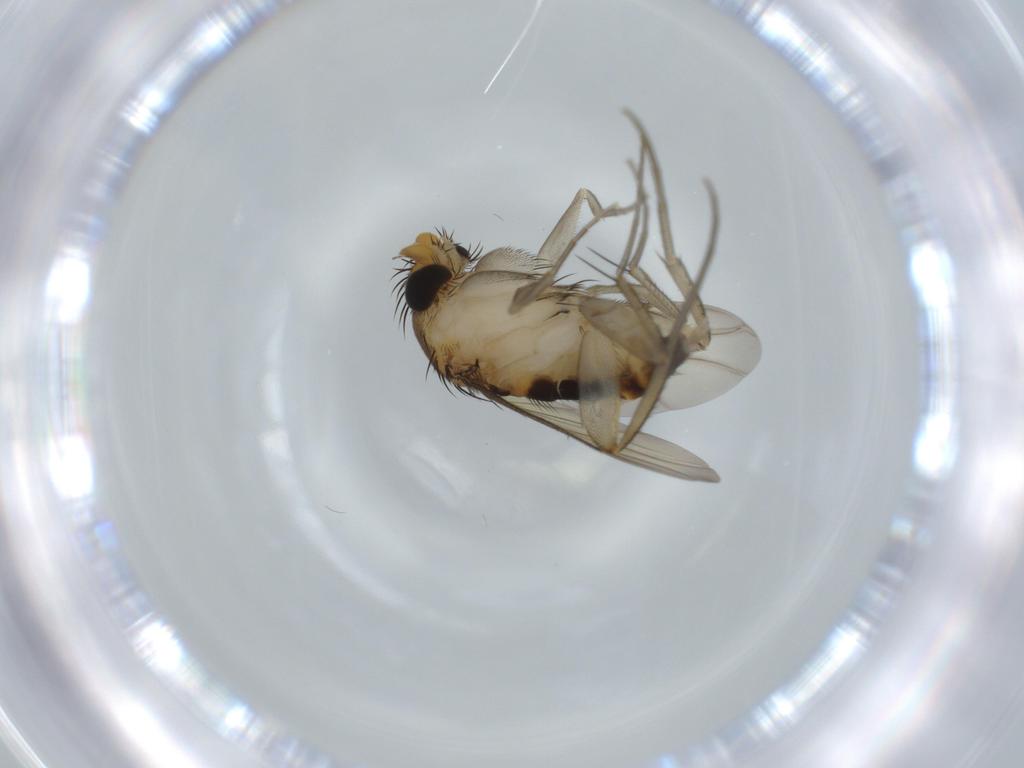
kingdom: Animalia
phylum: Arthropoda
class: Insecta
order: Diptera
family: Phoridae
